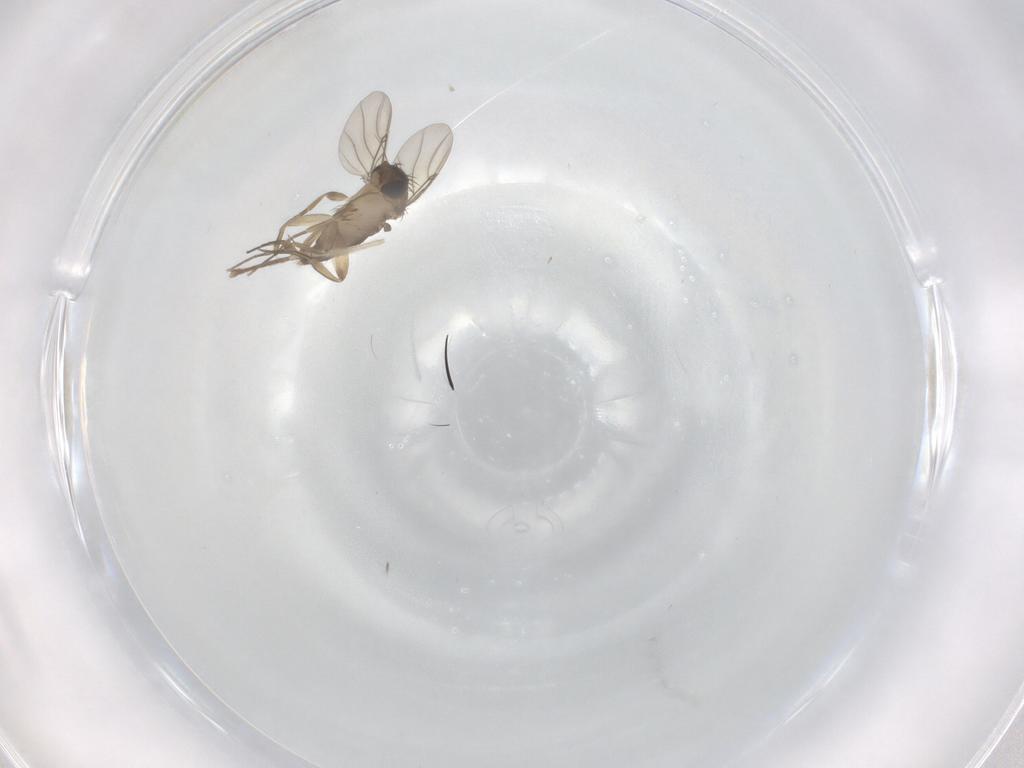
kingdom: Animalia
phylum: Arthropoda
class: Insecta
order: Diptera
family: Phoridae
